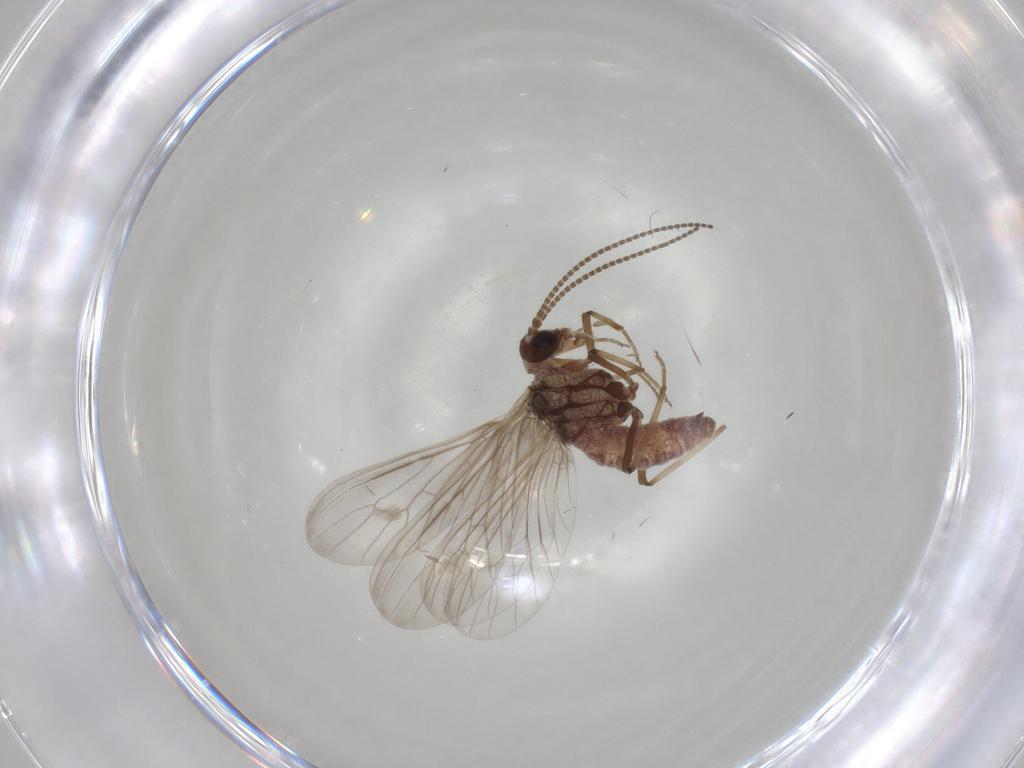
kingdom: Animalia
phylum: Arthropoda
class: Insecta
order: Neuroptera
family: Coniopterygidae
